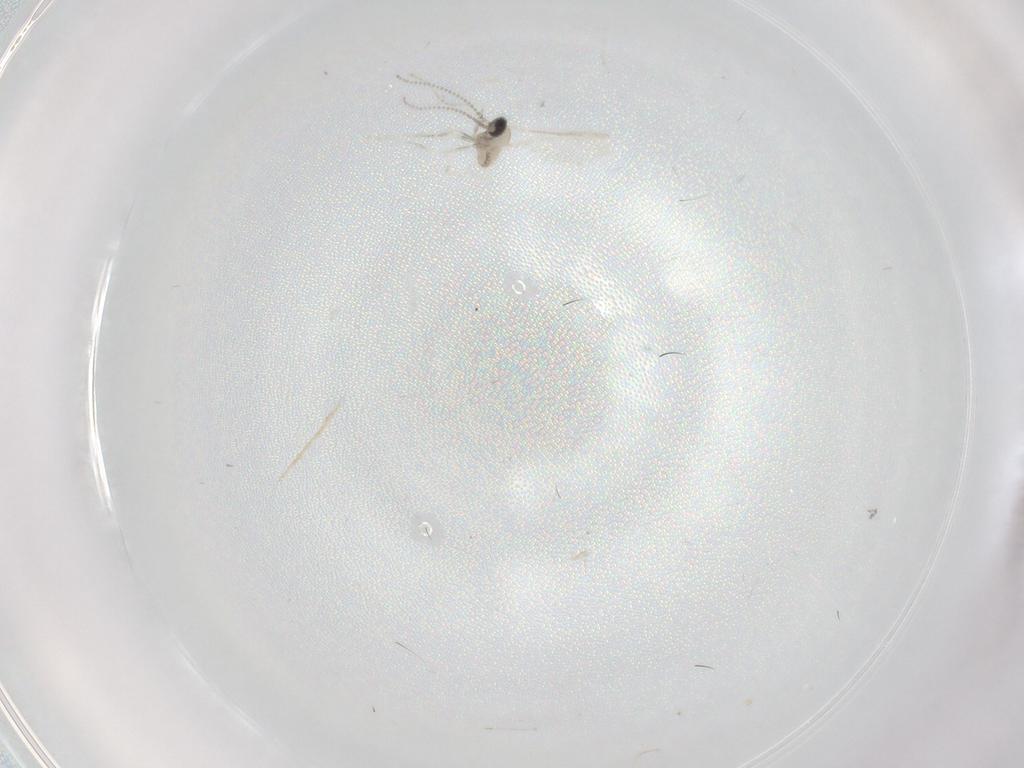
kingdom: Animalia
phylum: Arthropoda
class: Insecta
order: Diptera
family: Cecidomyiidae
